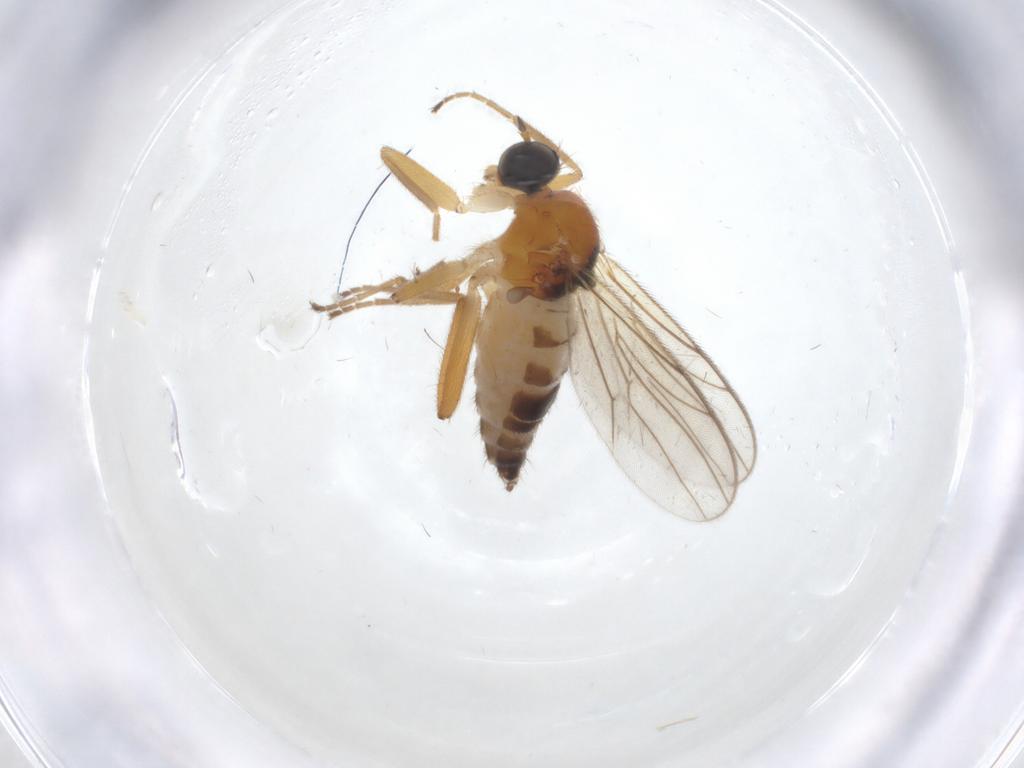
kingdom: Animalia
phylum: Arthropoda
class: Insecta
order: Diptera
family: Hybotidae
